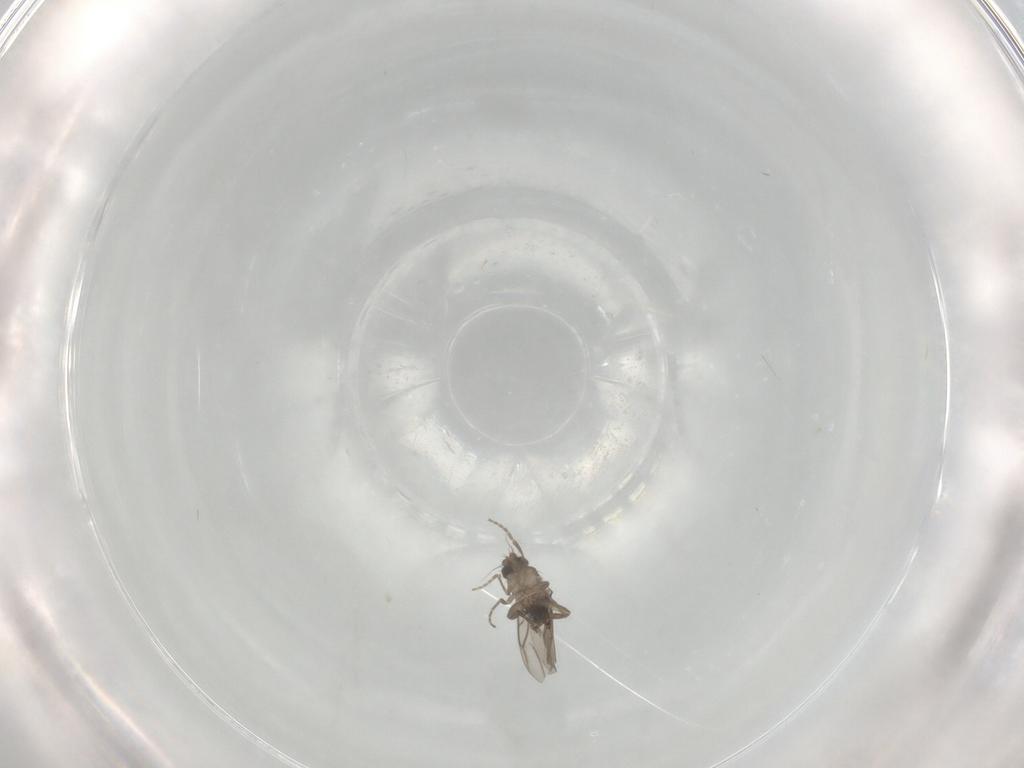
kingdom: Animalia
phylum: Arthropoda
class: Insecta
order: Diptera
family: Phoridae
